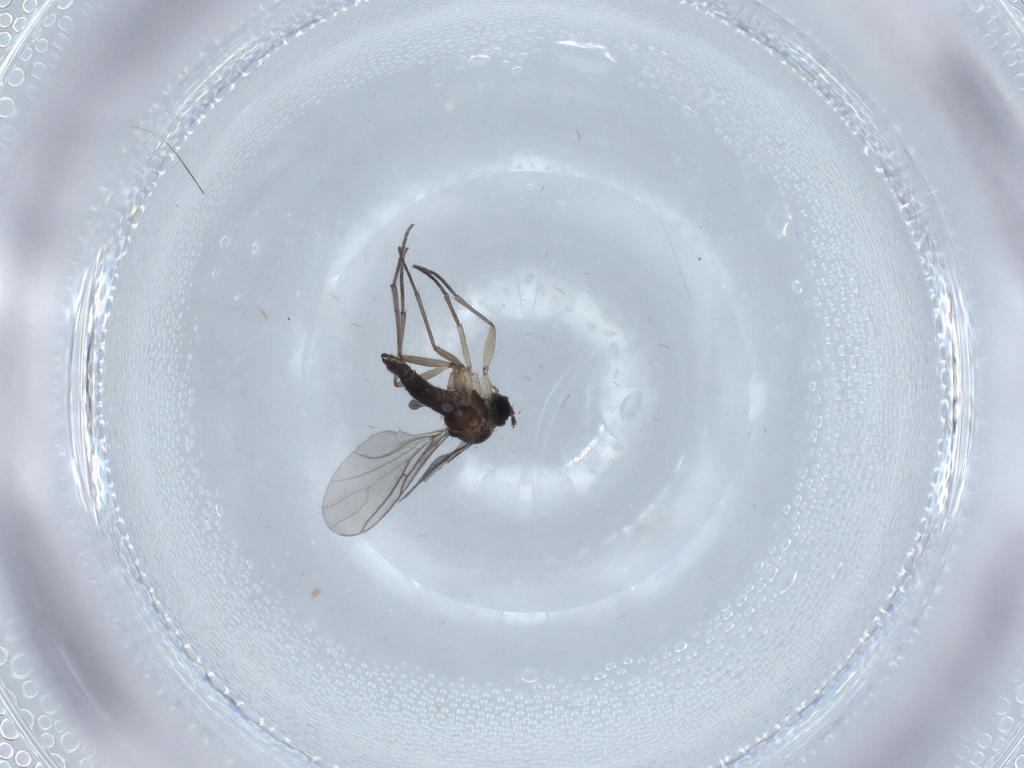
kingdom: Animalia
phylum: Arthropoda
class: Insecta
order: Diptera
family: Sciaridae
